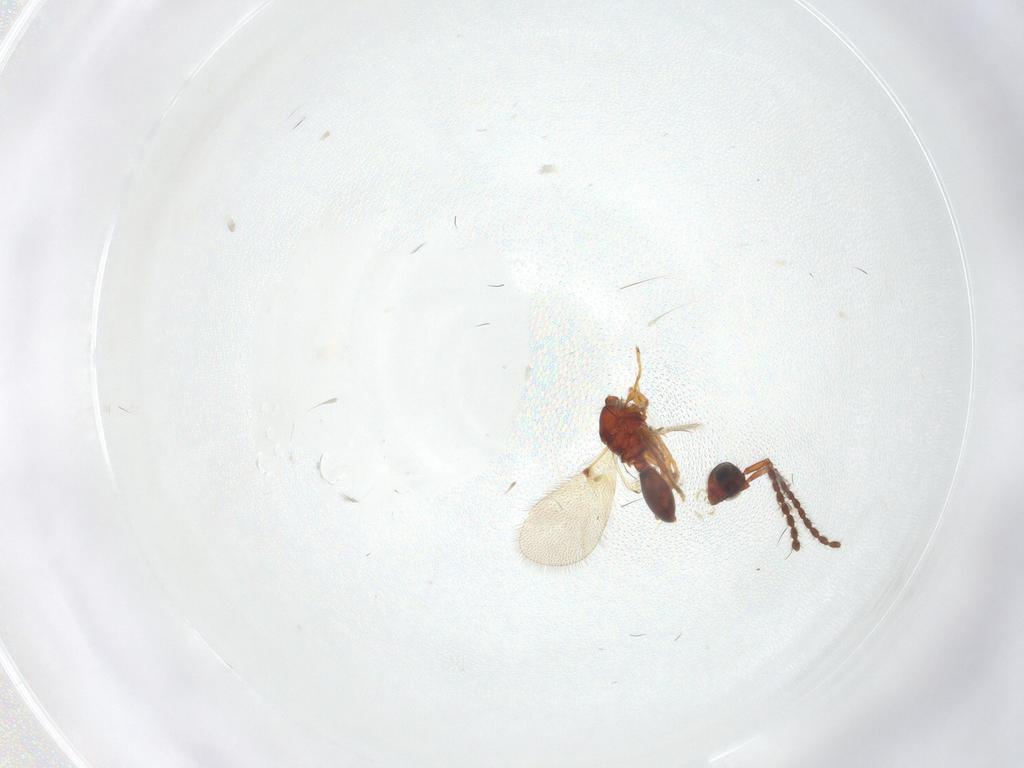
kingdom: Animalia
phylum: Arthropoda
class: Insecta
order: Hymenoptera
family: Diapriidae
